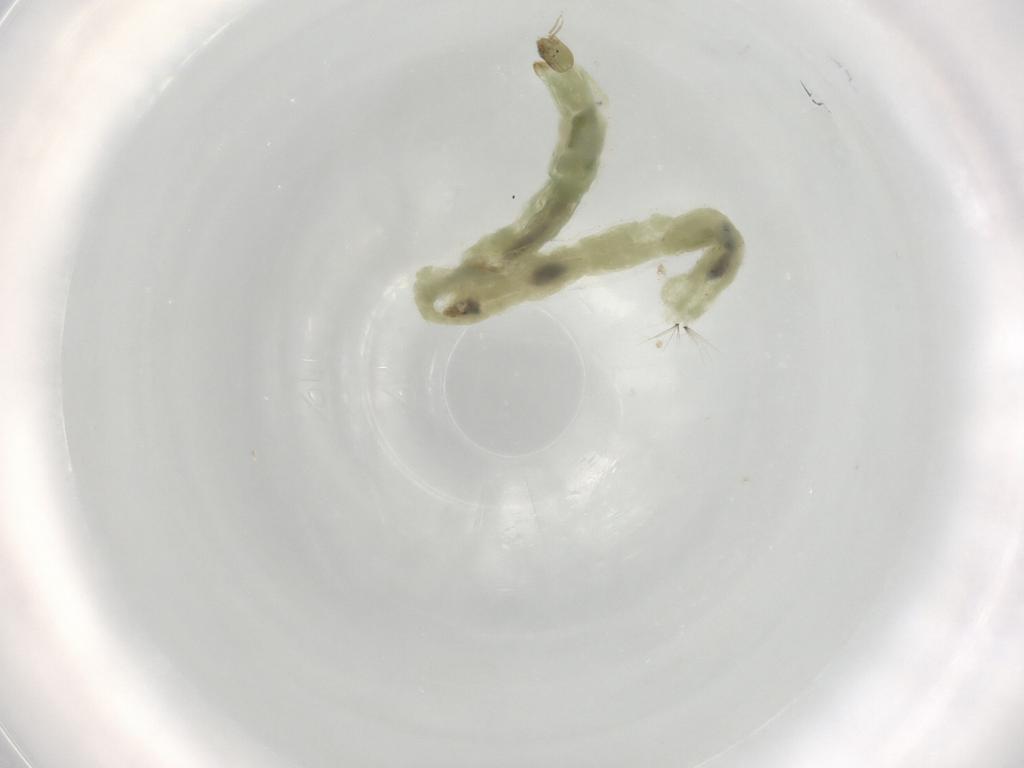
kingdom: Animalia
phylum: Arthropoda
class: Insecta
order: Diptera
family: Chironomidae
